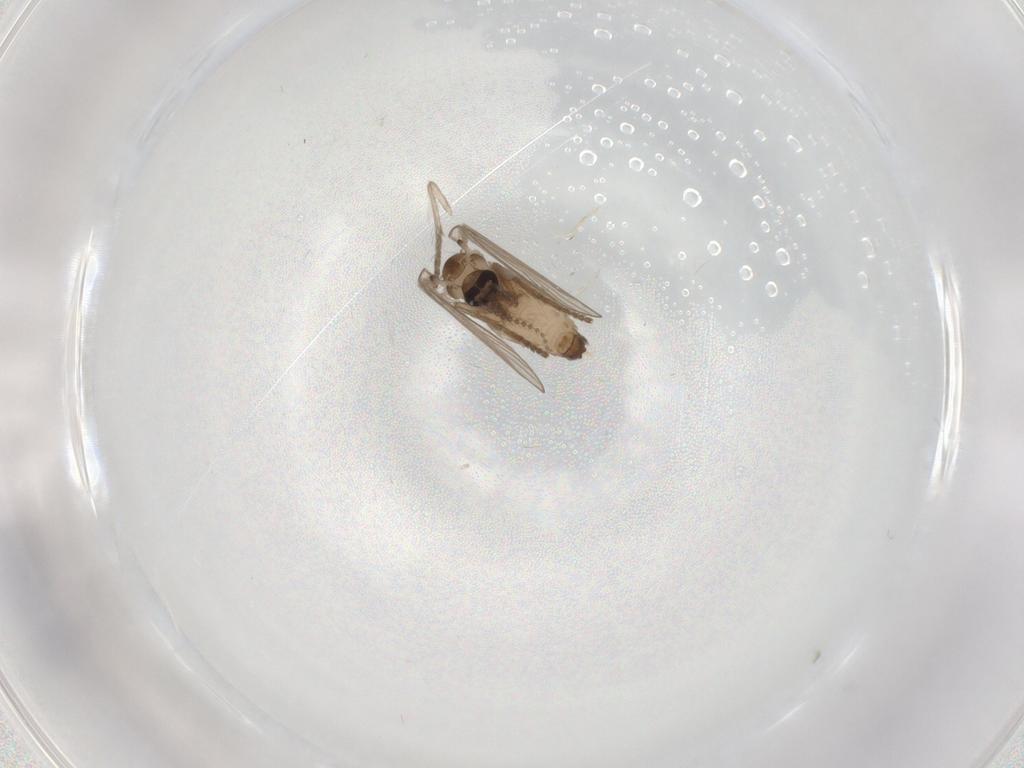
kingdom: Animalia
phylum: Arthropoda
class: Insecta
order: Diptera
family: Psychodidae
